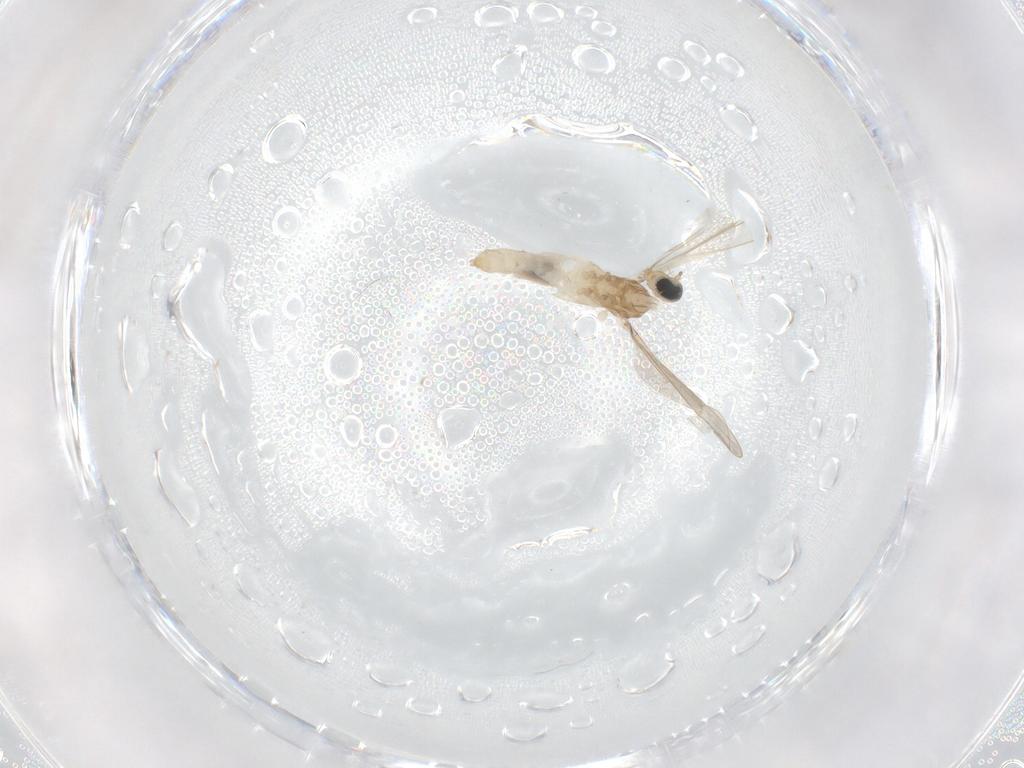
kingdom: Animalia
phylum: Arthropoda
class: Insecta
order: Diptera
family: Cecidomyiidae
